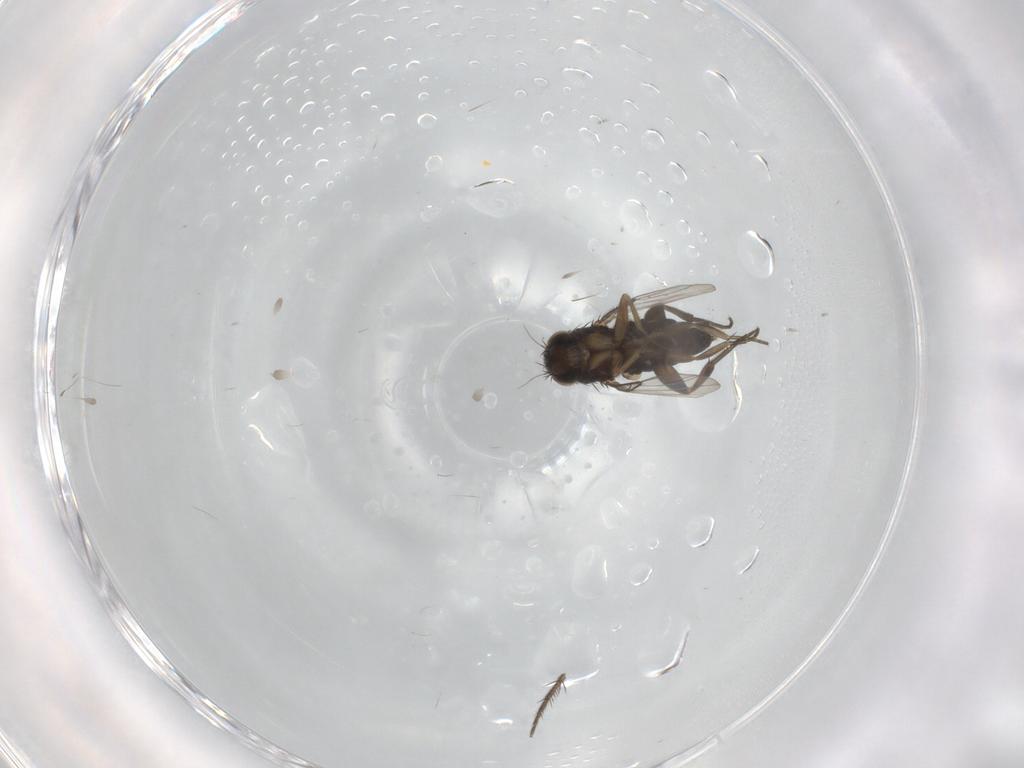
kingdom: Animalia
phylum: Arthropoda
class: Insecta
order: Diptera
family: Phoridae
